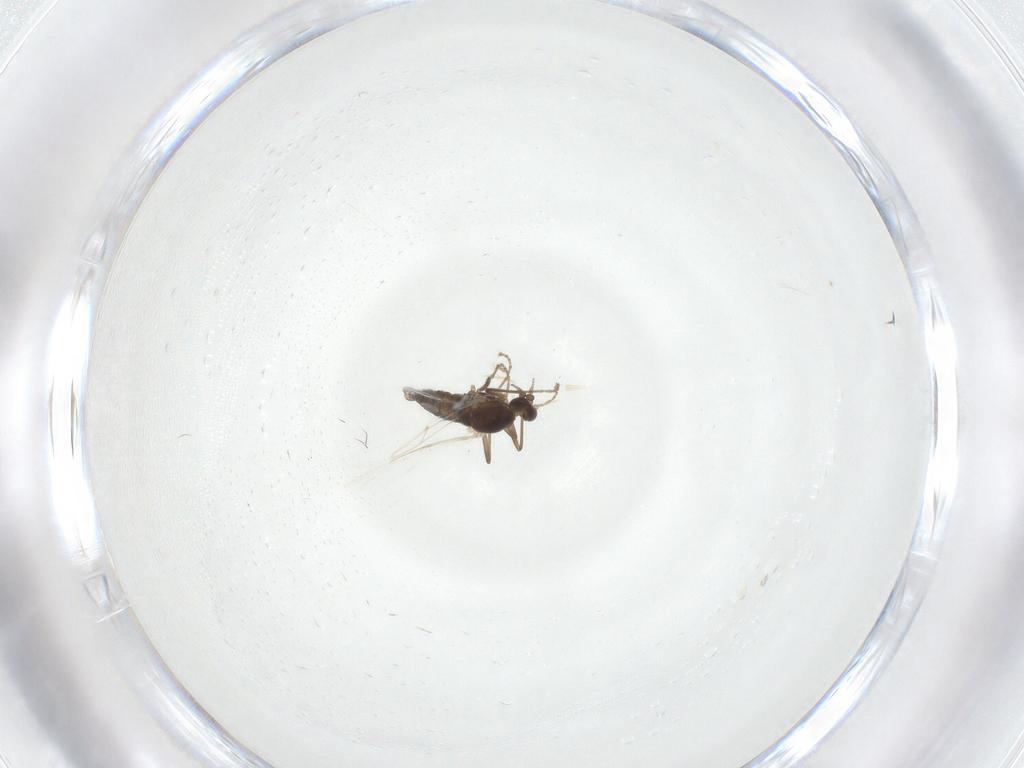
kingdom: Animalia
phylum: Arthropoda
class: Insecta
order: Diptera
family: Cecidomyiidae
